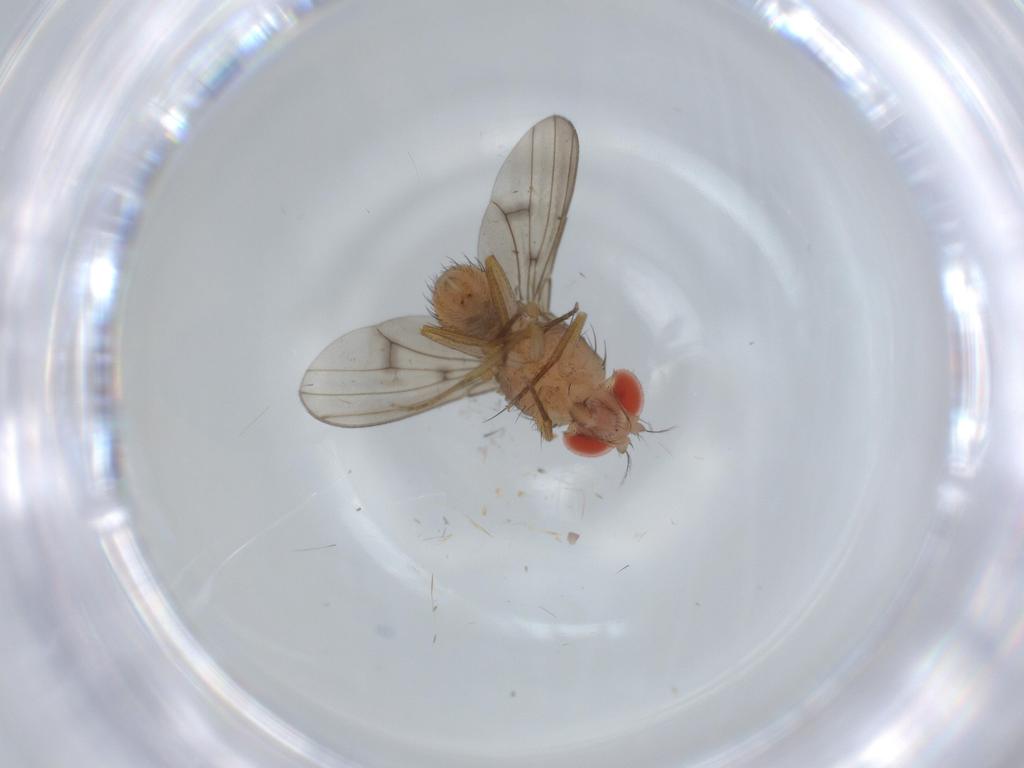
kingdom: Animalia
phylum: Arthropoda
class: Insecta
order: Diptera
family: Drosophilidae
